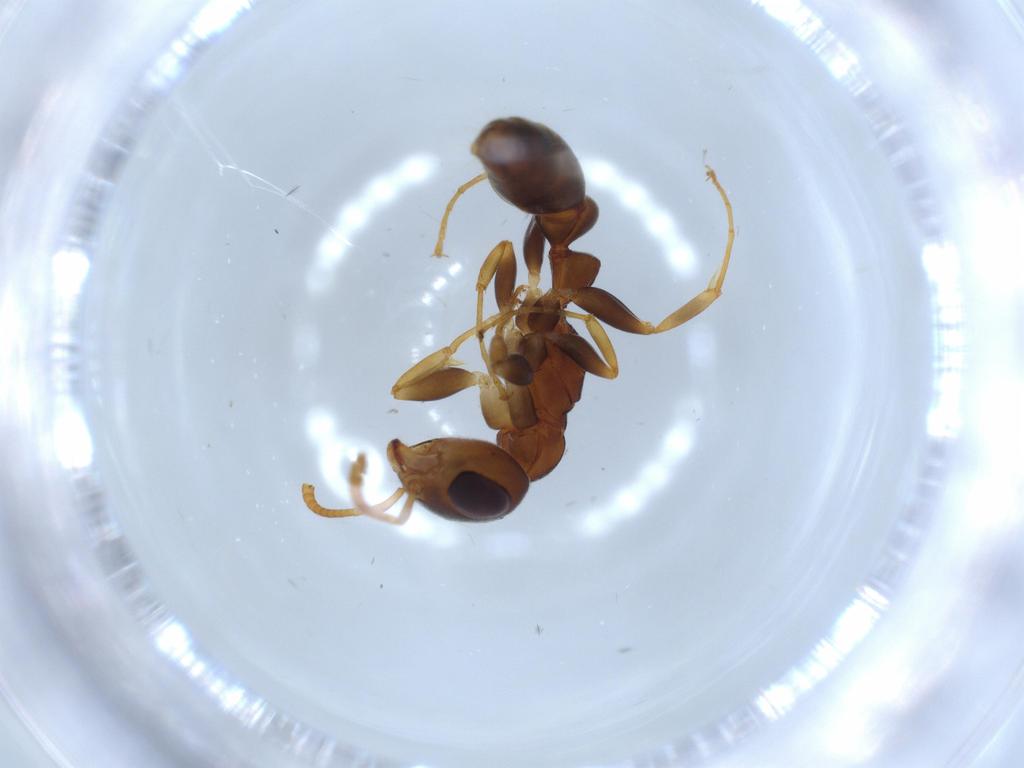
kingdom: Animalia
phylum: Arthropoda
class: Insecta
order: Hymenoptera
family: Formicidae
